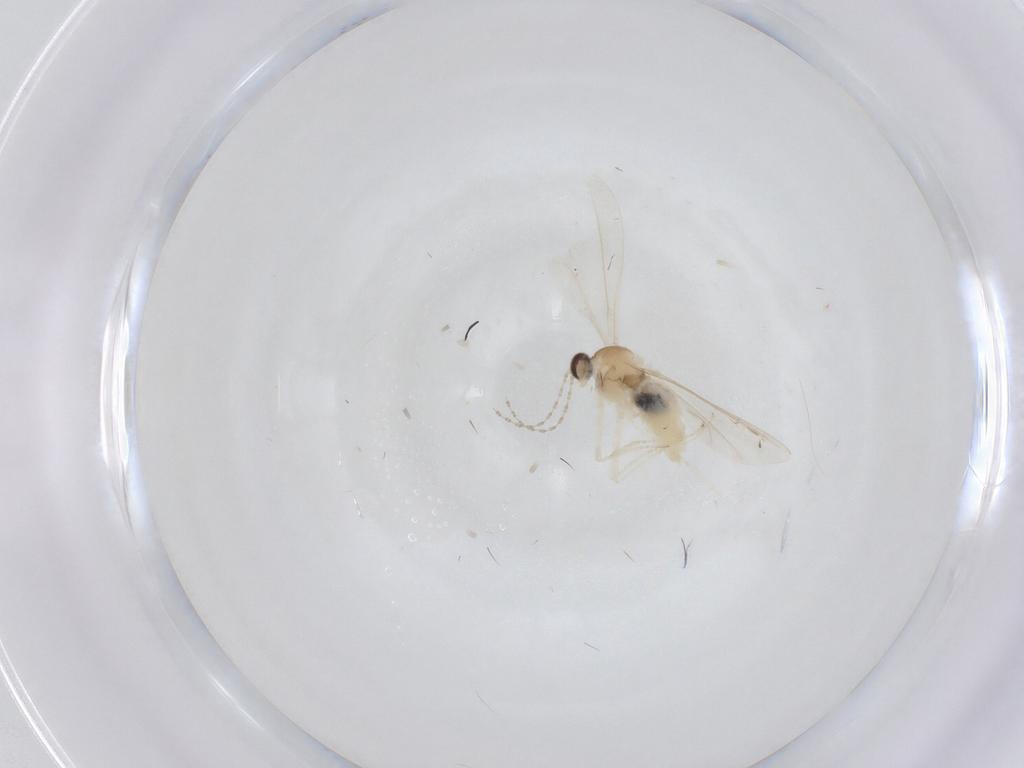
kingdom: Animalia
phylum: Arthropoda
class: Insecta
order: Diptera
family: Cecidomyiidae
